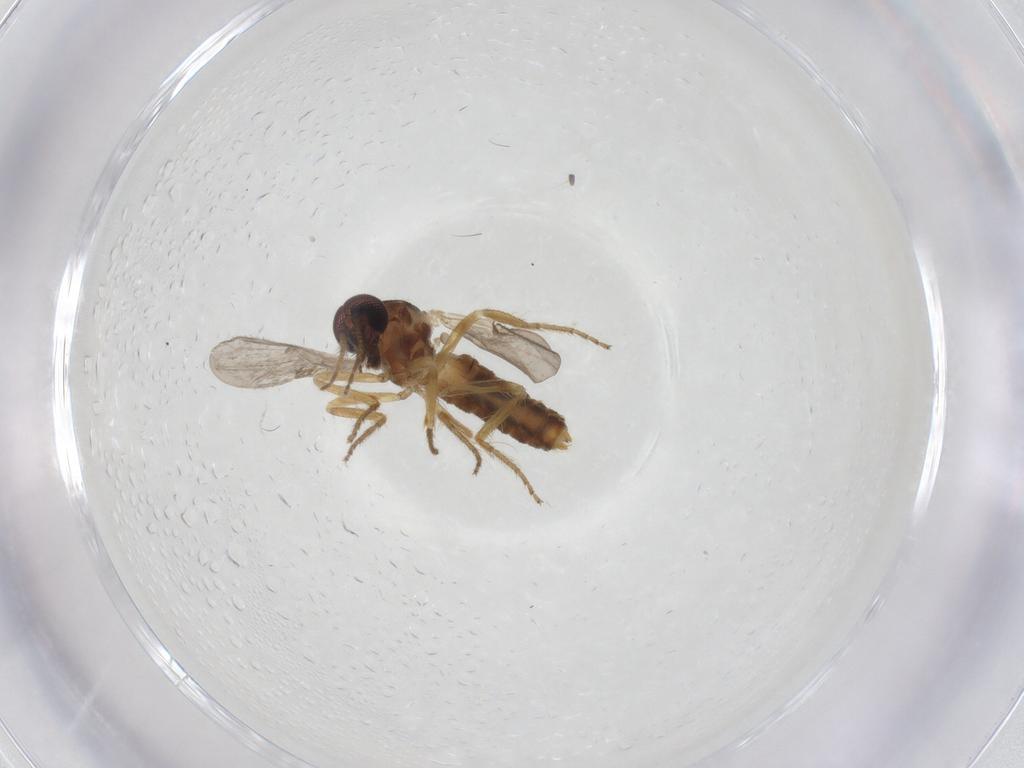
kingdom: Animalia
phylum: Arthropoda
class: Insecta
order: Diptera
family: Ceratopogonidae
